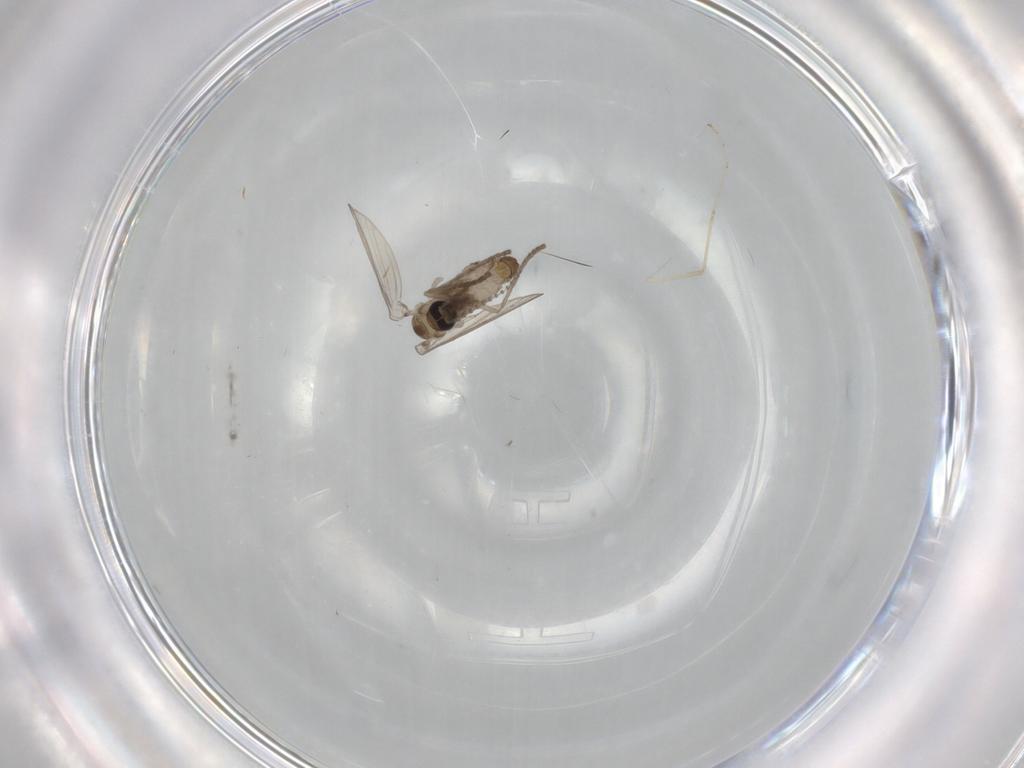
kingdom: Animalia
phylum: Arthropoda
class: Insecta
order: Diptera
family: Psychodidae
